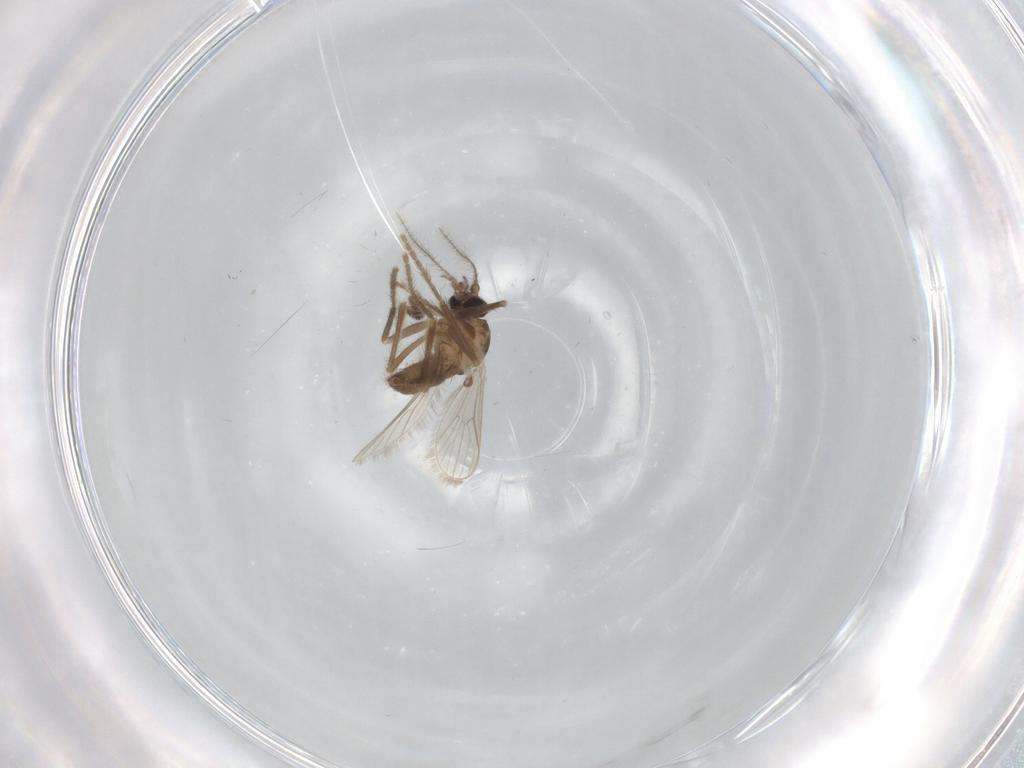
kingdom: Animalia
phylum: Arthropoda
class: Insecta
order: Diptera
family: Corethrellidae
